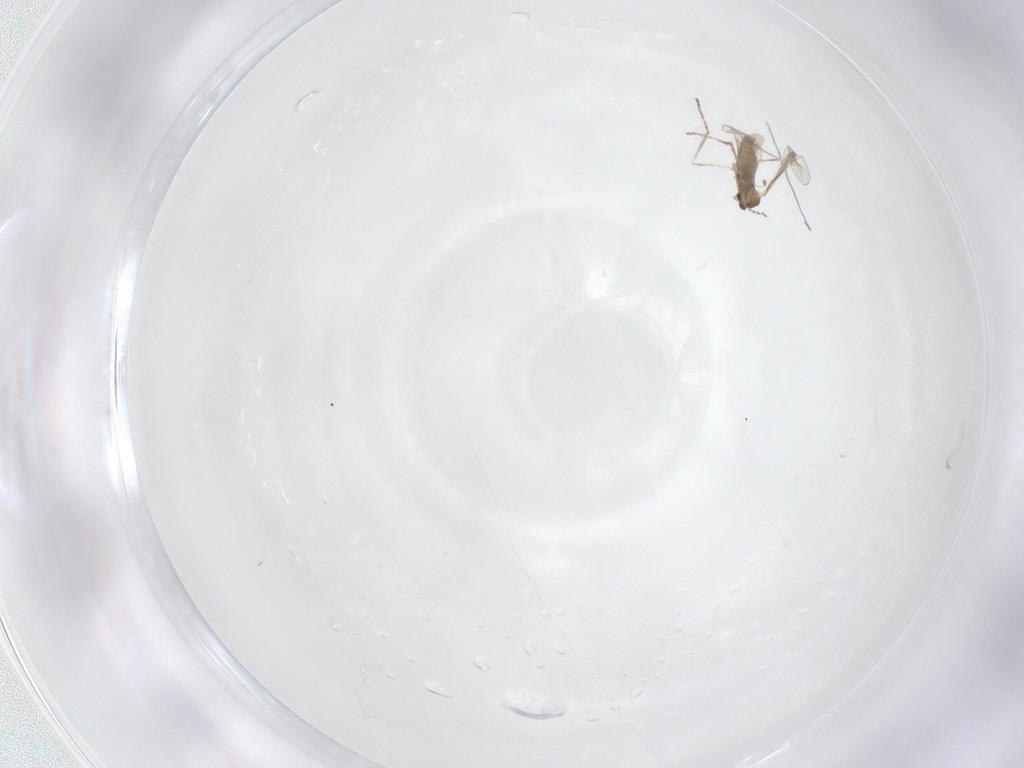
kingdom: Animalia
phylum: Arthropoda
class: Insecta
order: Diptera
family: Cecidomyiidae
